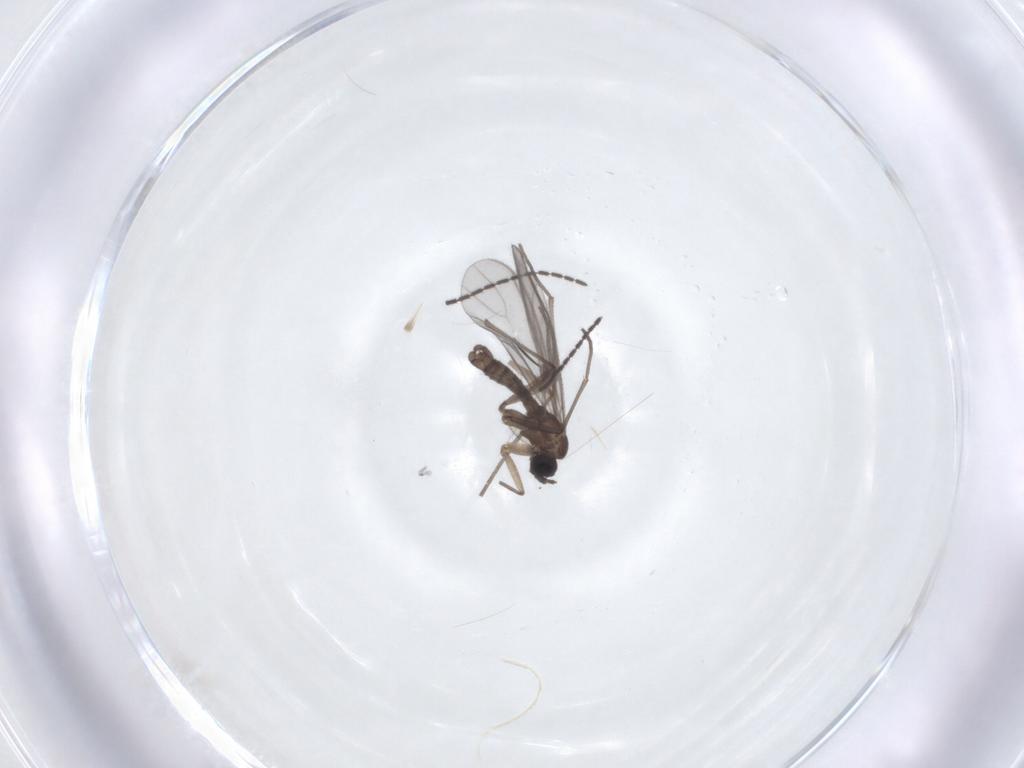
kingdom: Animalia
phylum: Arthropoda
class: Insecta
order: Diptera
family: Sciaridae
